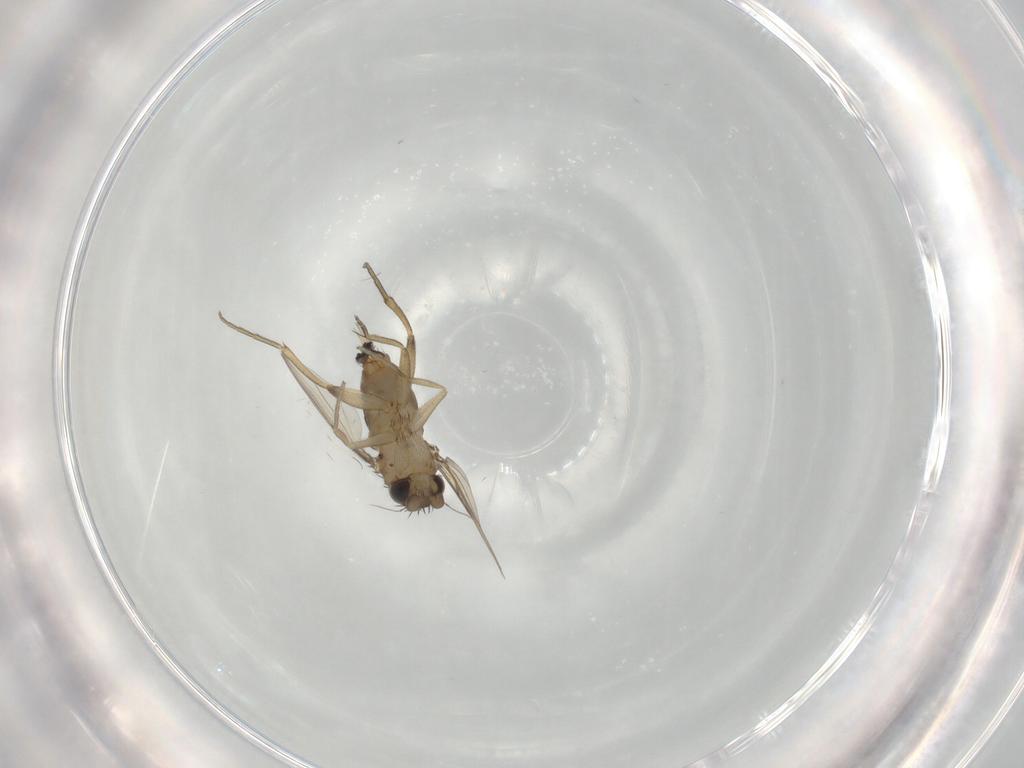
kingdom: Animalia
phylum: Arthropoda
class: Insecta
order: Diptera
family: Phoridae
